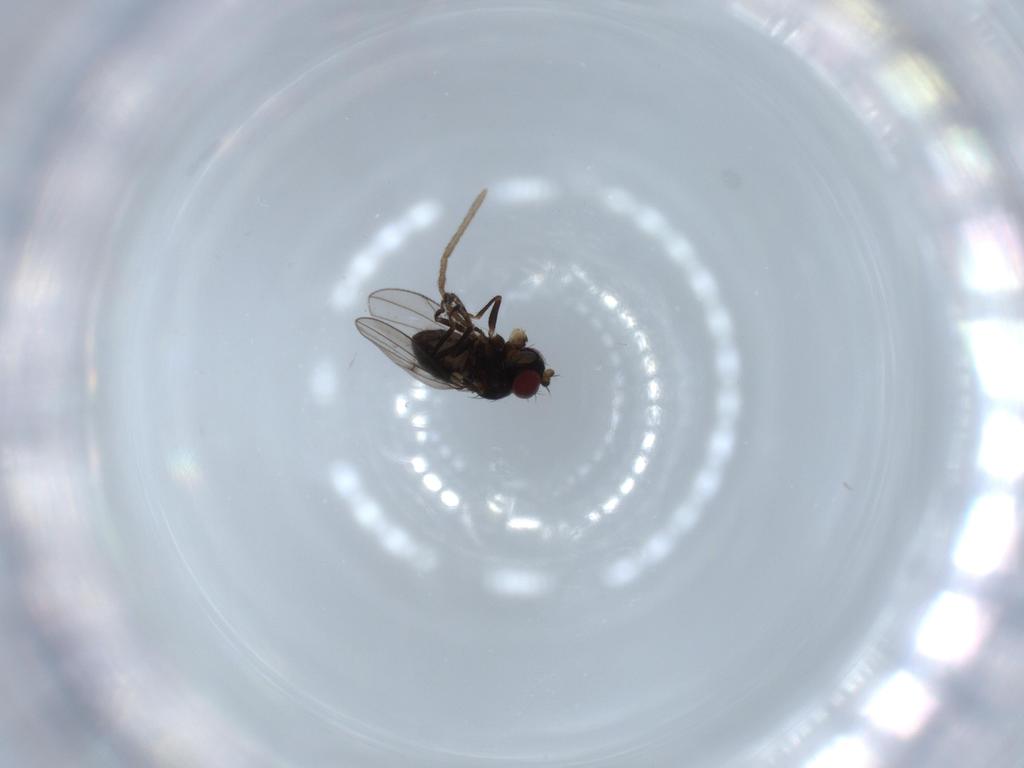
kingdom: Animalia
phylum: Arthropoda
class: Insecta
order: Diptera
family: Ephydridae
